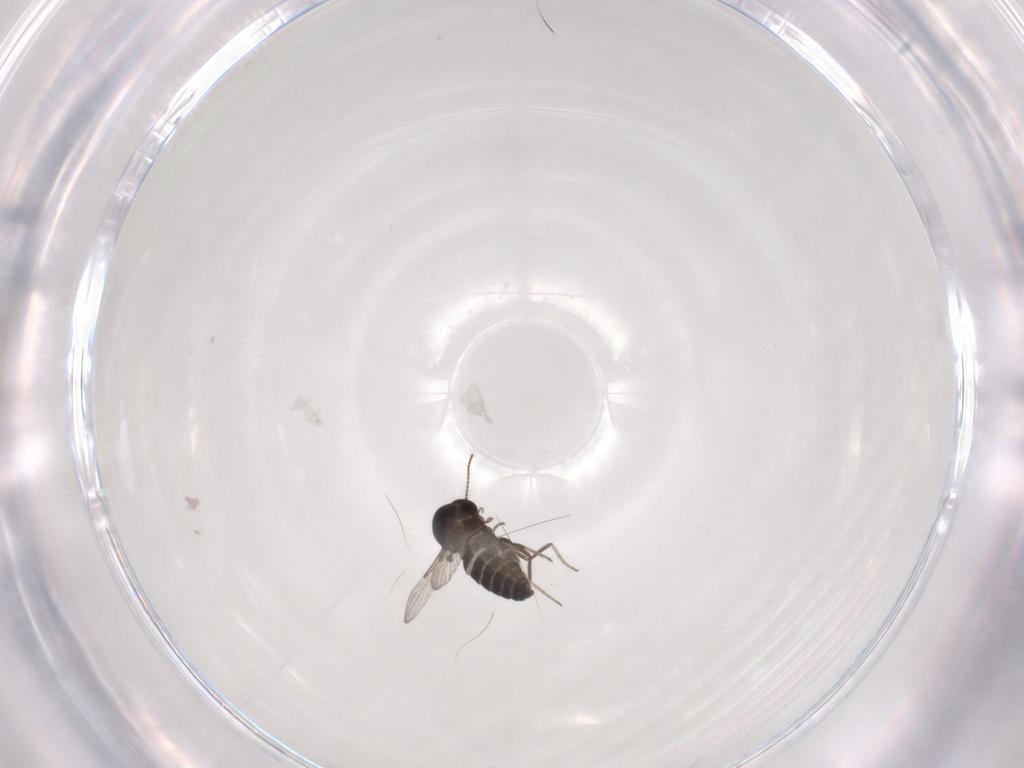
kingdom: Animalia
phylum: Arthropoda
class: Insecta
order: Diptera
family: Ceratopogonidae
